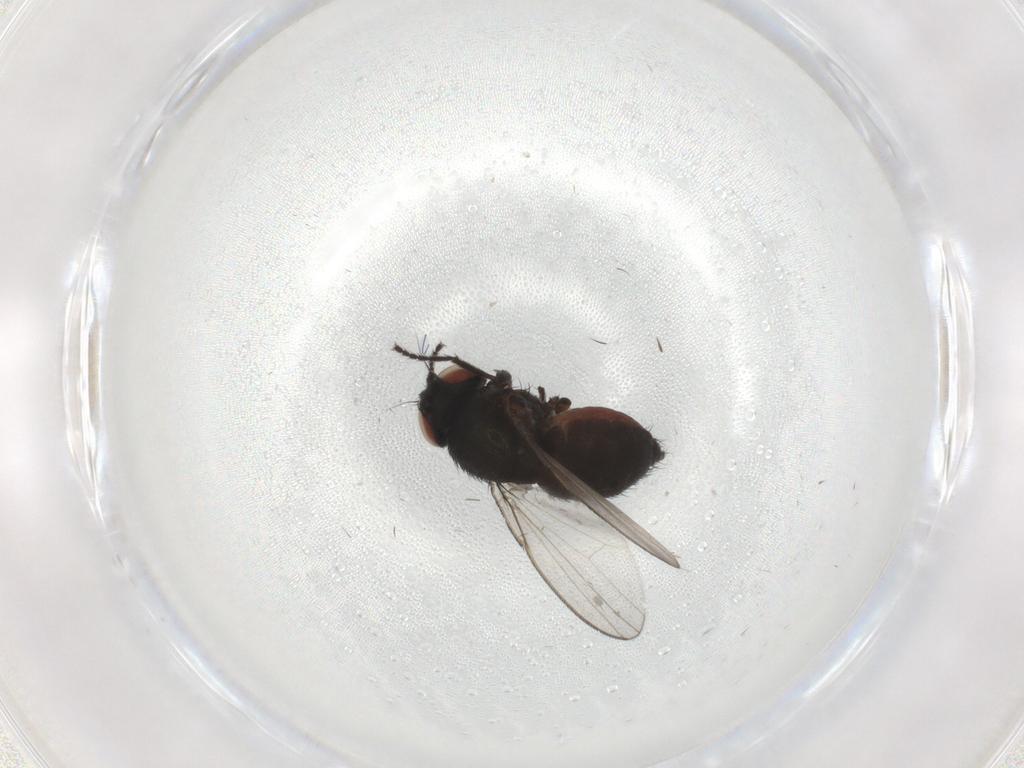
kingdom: Animalia
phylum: Arthropoda
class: Insecta
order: Diptera
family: Milichiidae
